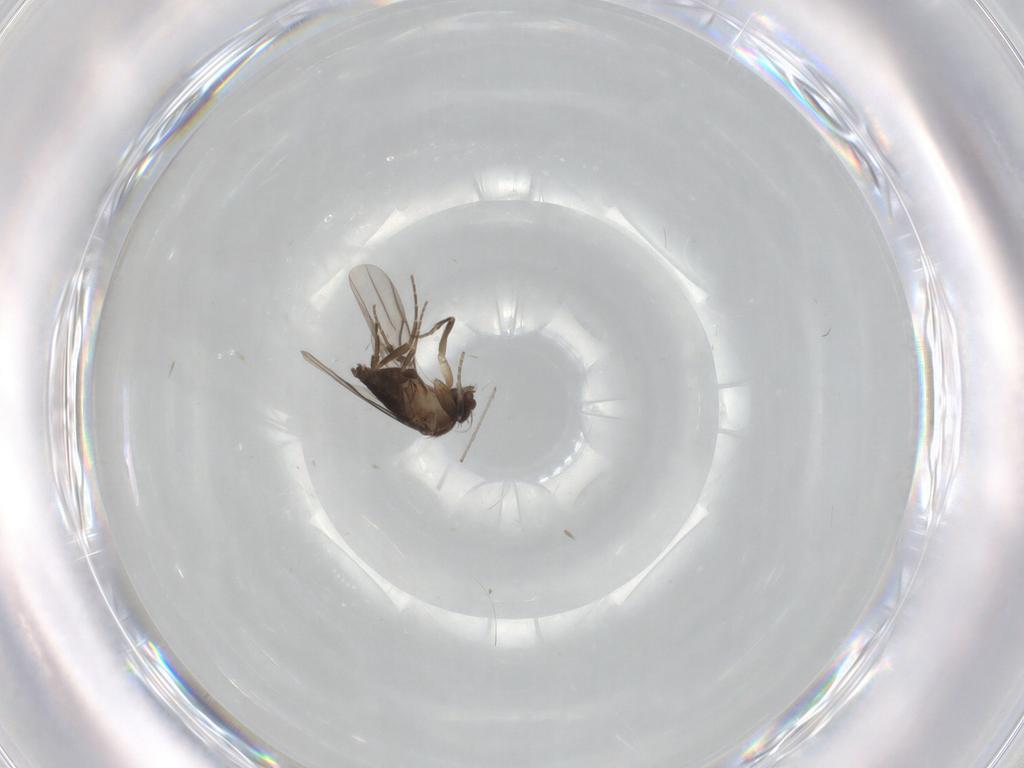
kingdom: Animalia
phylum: Arthropoda
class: Insecta
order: Diptera
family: Phoridae
